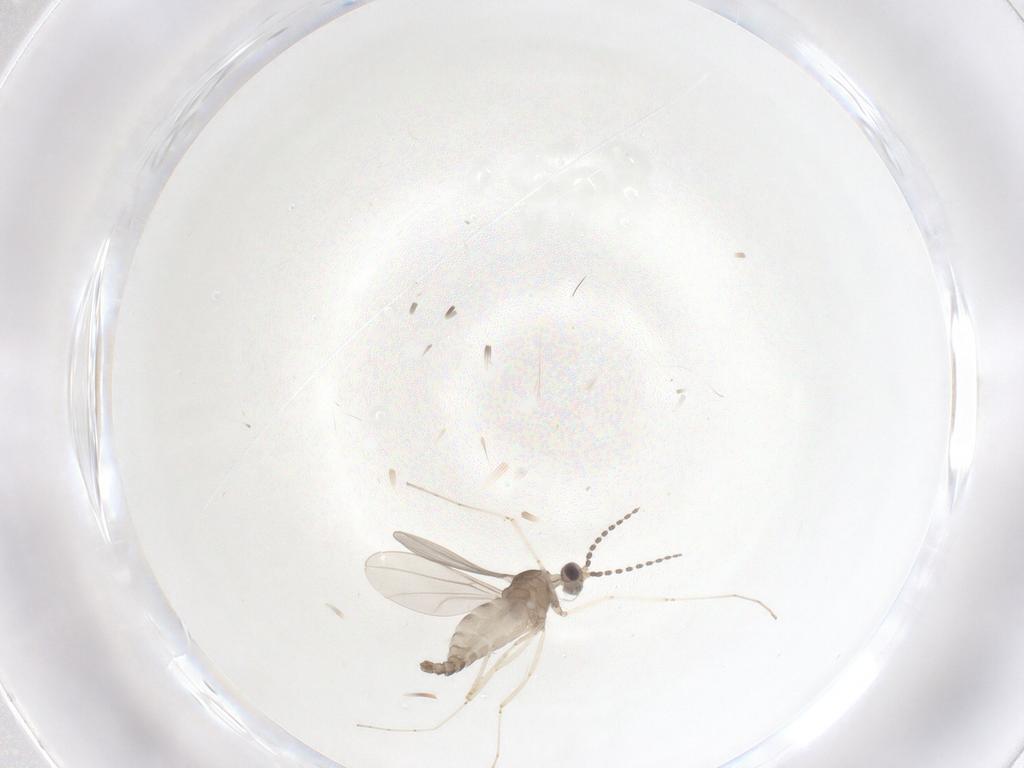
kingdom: Animalia
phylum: Arthropoda
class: Insecta
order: Diptera
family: Cecidomyiidae
